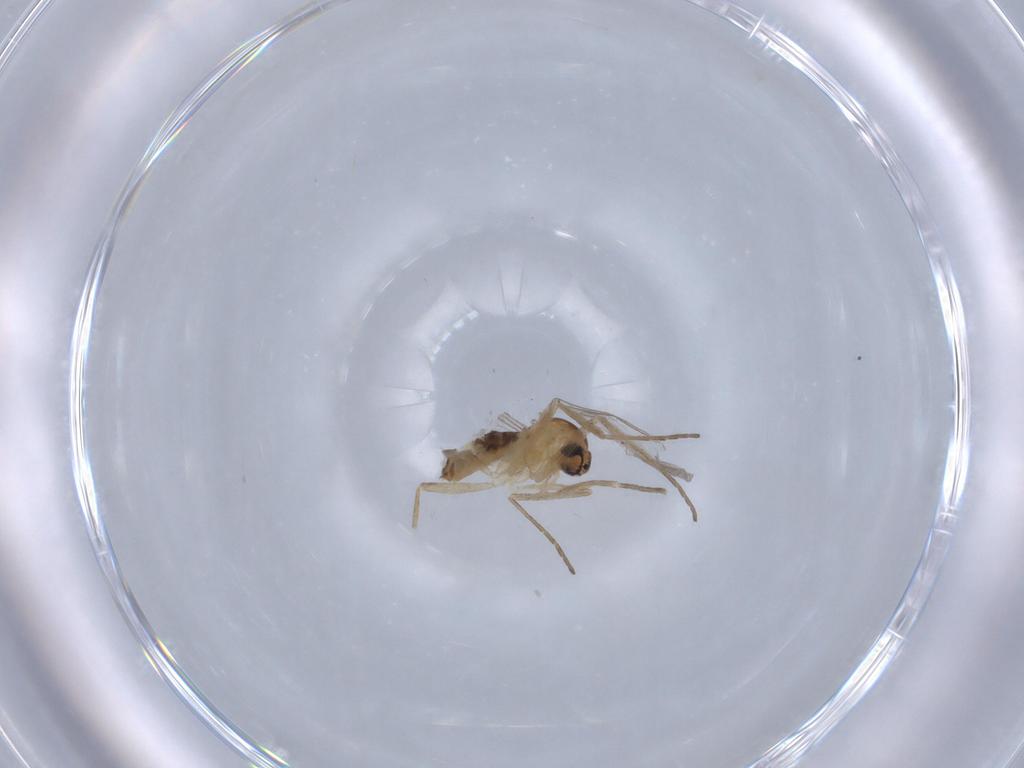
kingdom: Animalia
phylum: Arthropoda
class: Insecta
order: Diptera
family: Cecidomyiidae
